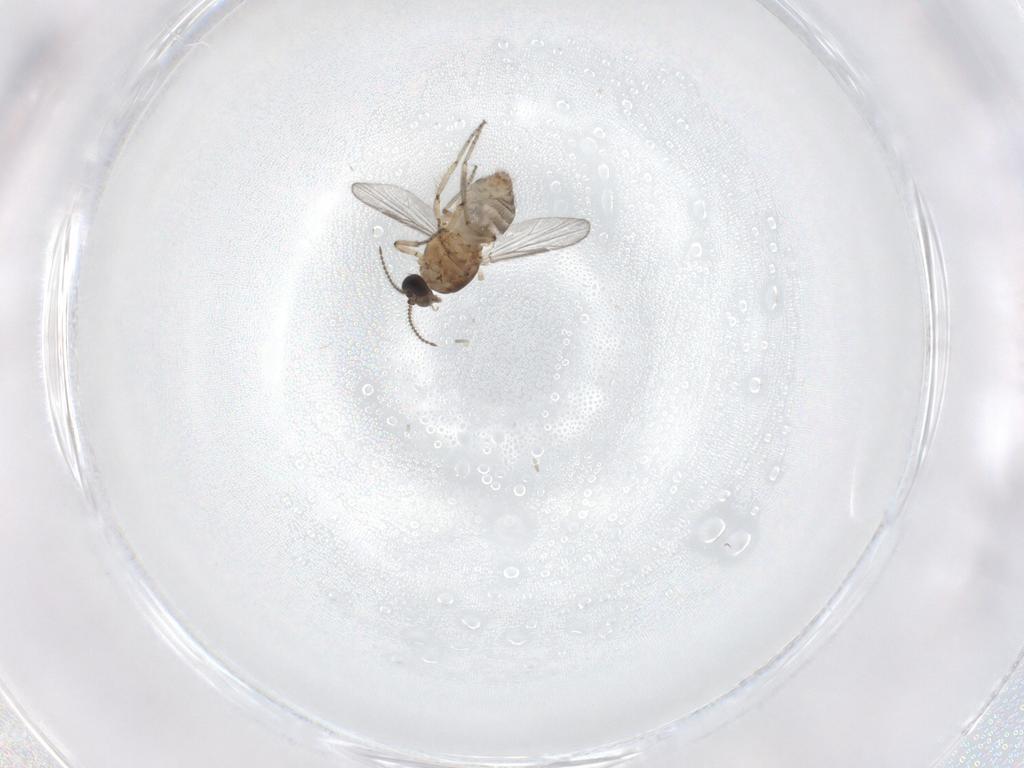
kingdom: Animalia
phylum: Arthropoda
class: Insecta
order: Diptera
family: Ceratopogonidae
